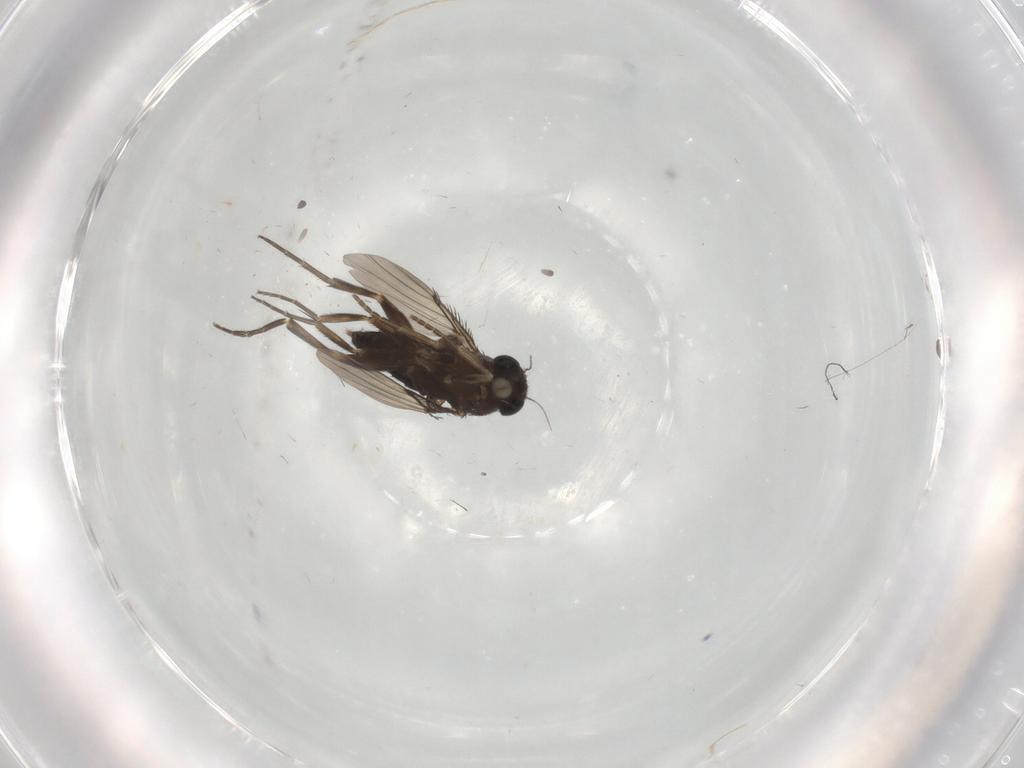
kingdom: Animalia
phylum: Arthropoda
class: Insecta
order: Diptera
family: Phoridae
